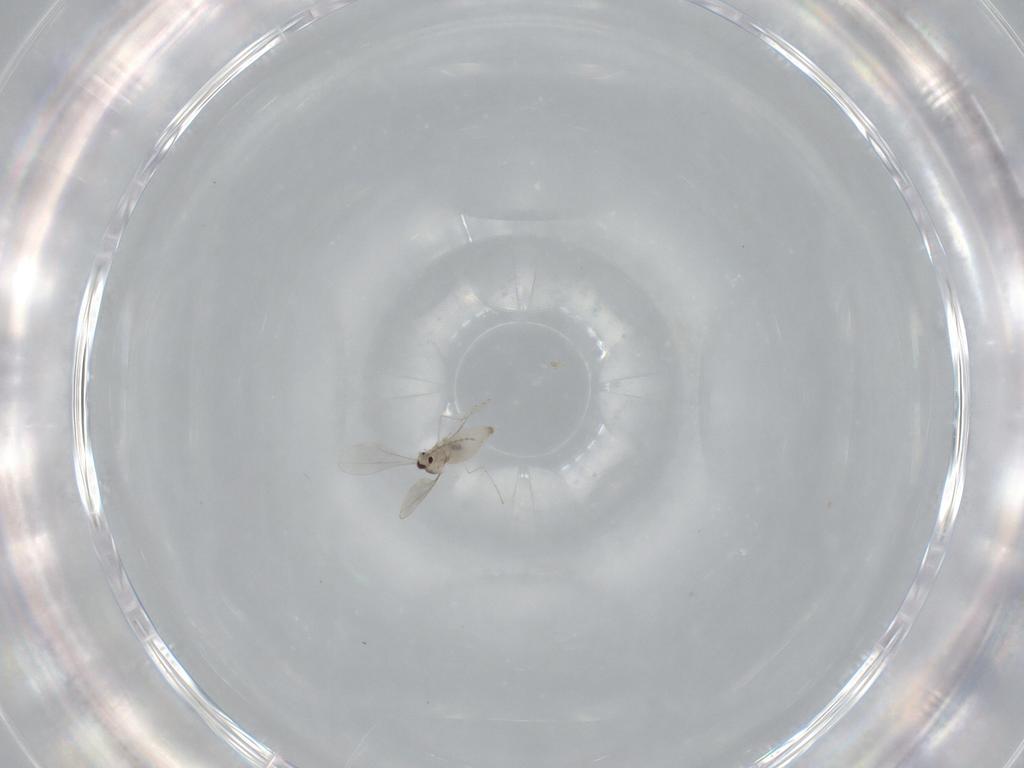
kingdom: Animalia
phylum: Arthropoda
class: Insecta
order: Diptera
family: Cecidomyiidae
